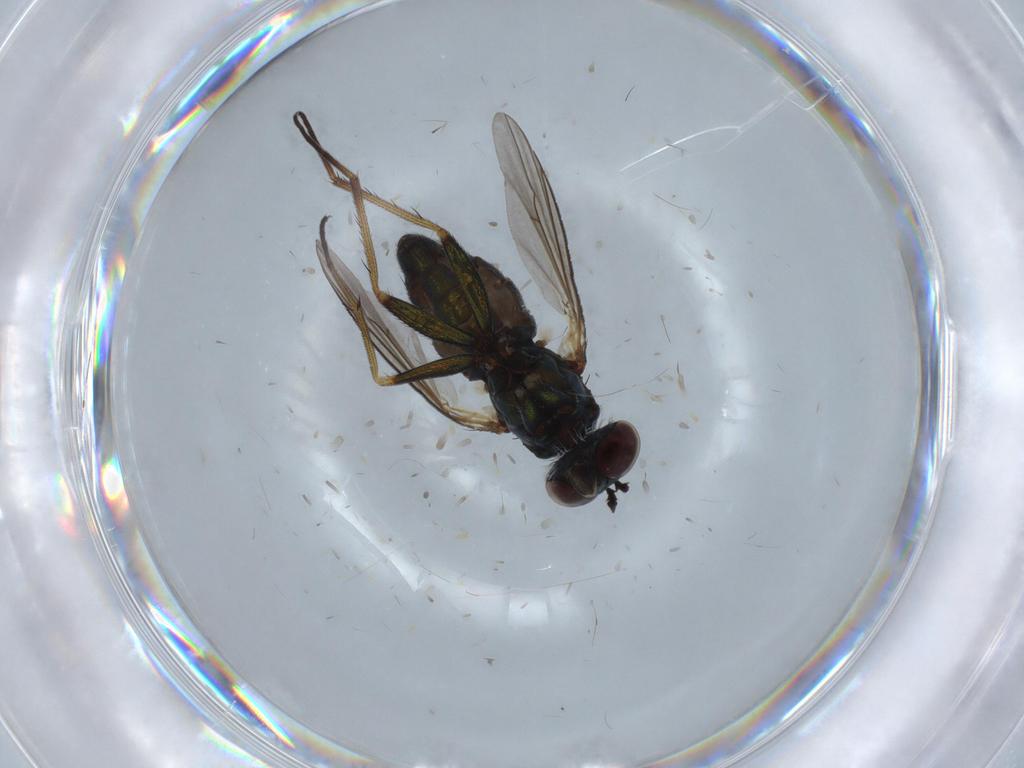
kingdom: Animalia
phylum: Arthropoda
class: Insecta
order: Diptera
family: Dolichopodidae
